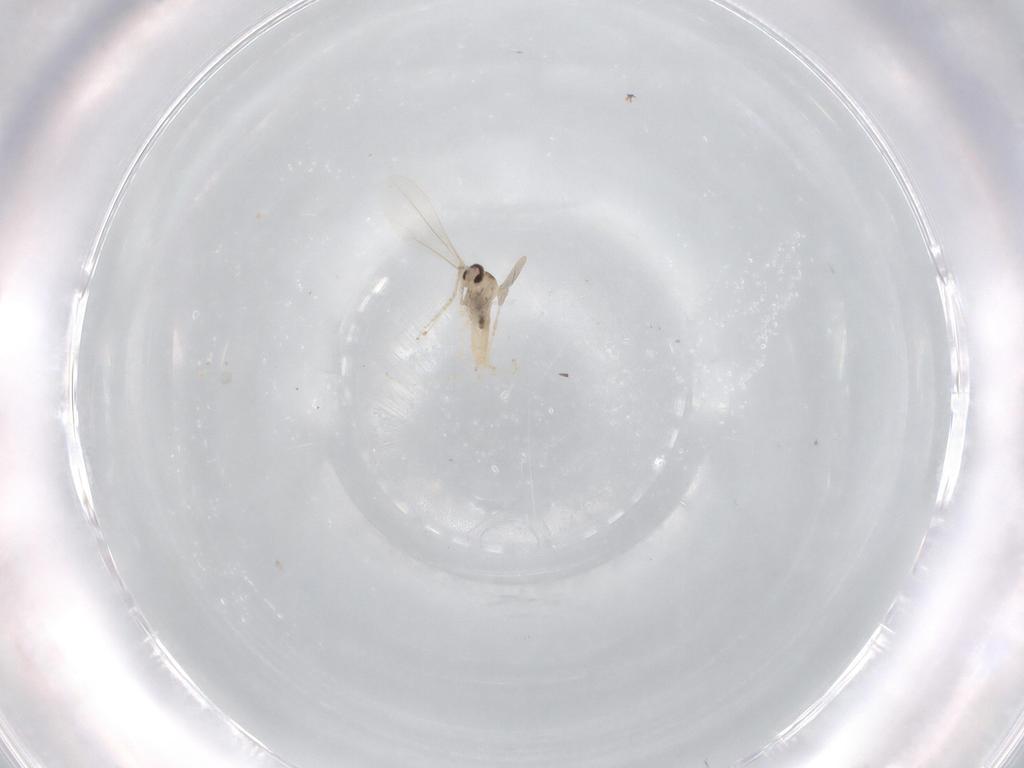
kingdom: Animalia
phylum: Arthropoda
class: Insecta
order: Diptera
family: Cecidomyiidae
